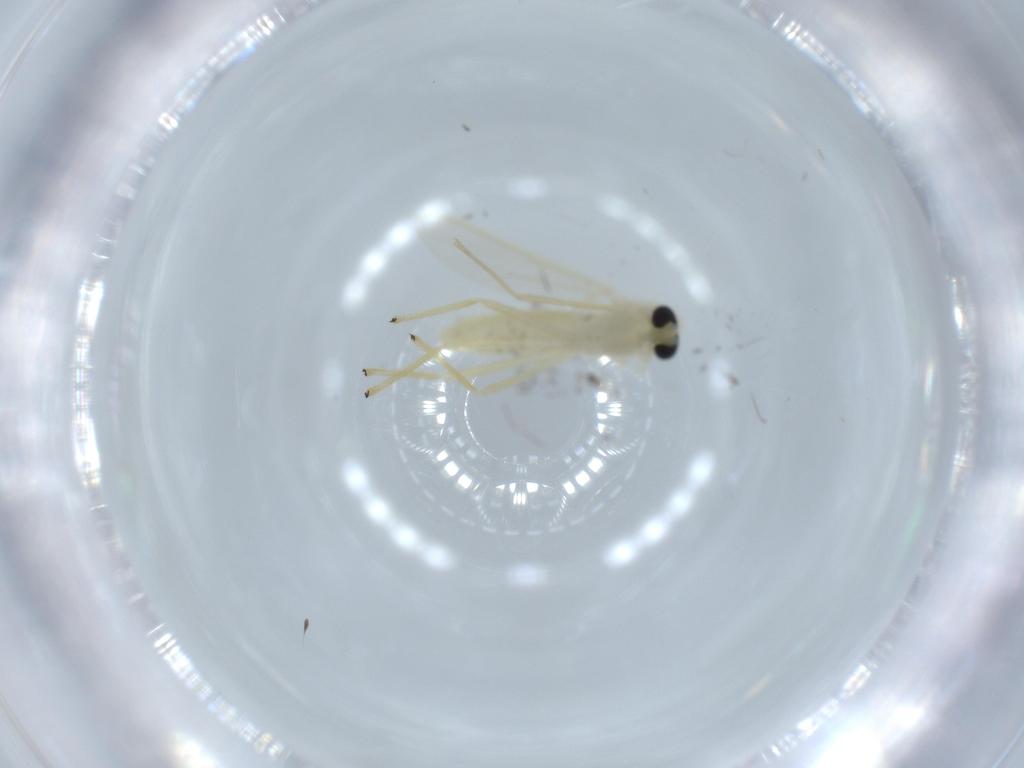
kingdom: Animalia
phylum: Arthropoda
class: Insecta
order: Diptera
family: Chironomidae
